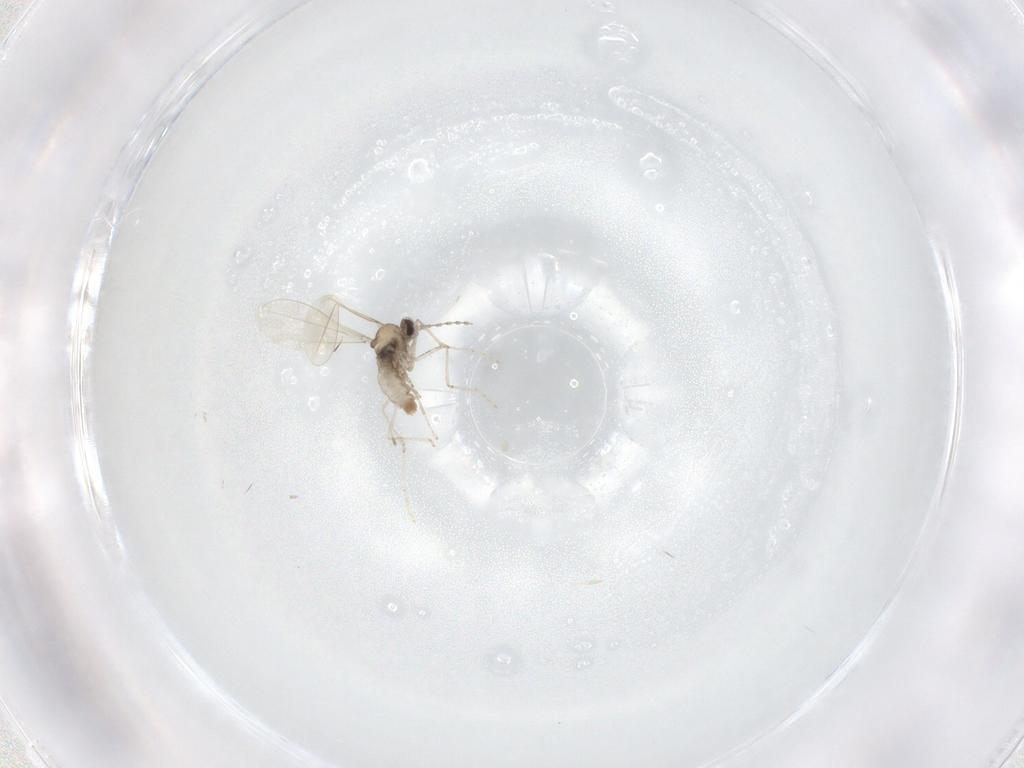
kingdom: Animalia
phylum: Arthropoda
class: Insecta
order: Diptera
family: Cecidomyiidae
